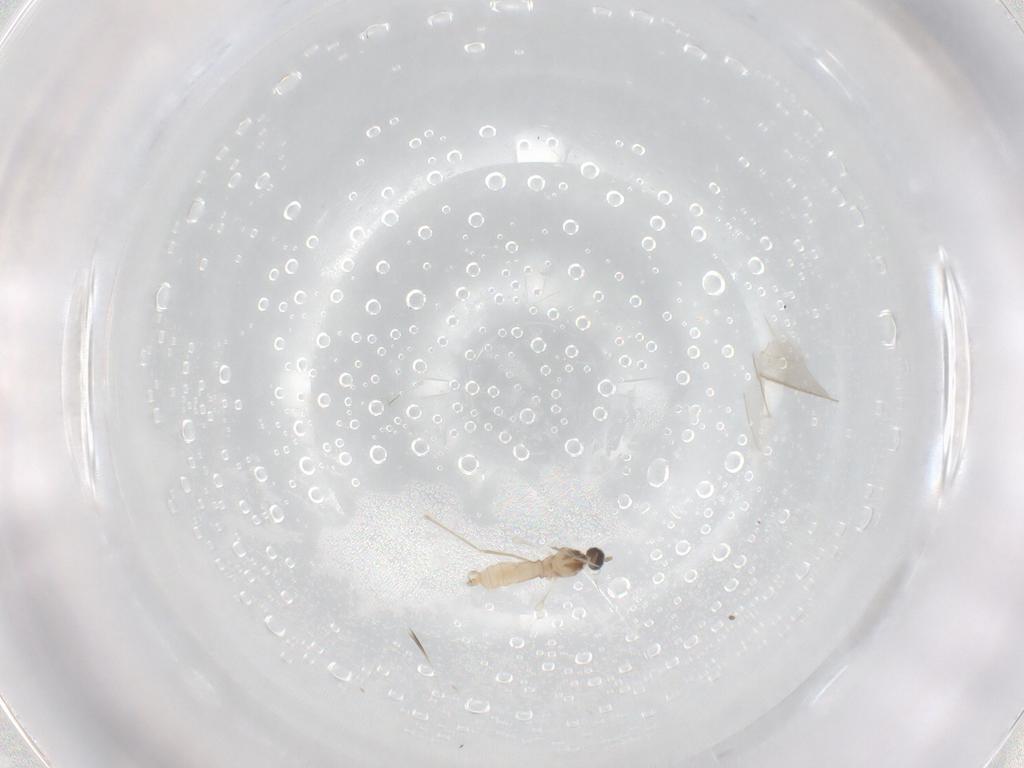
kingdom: Animalia
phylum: Arthropoda
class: Insecta
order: Diptera
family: Cecidomyiidae
